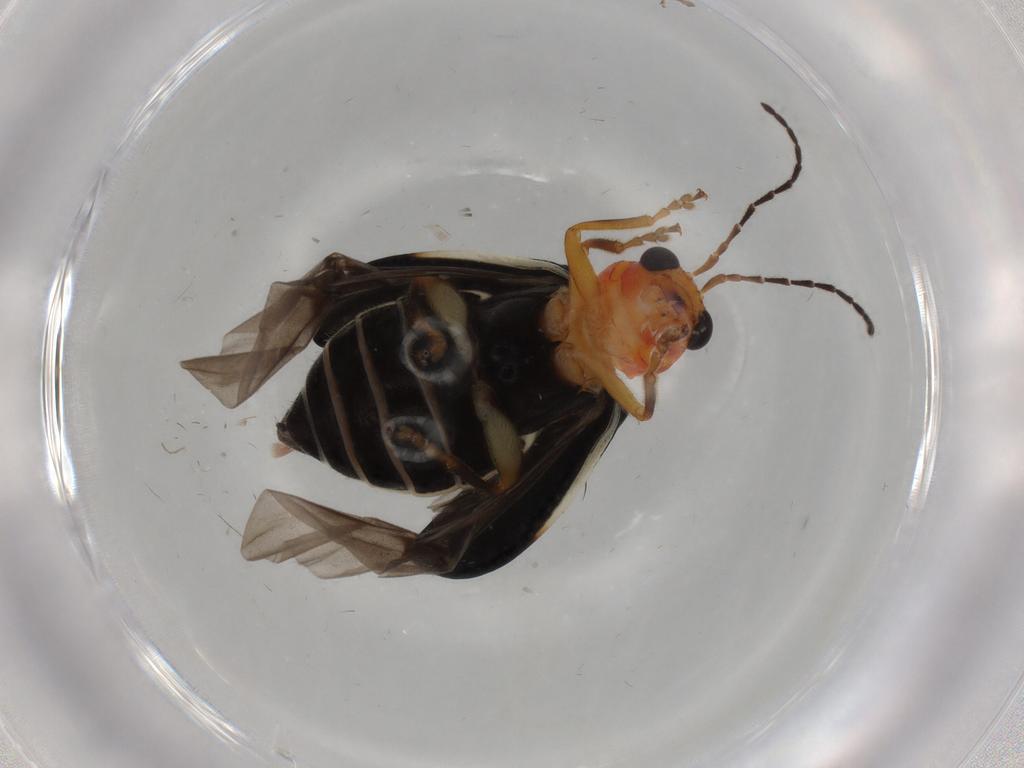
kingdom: Animalia
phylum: Arthropoda
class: Insecta
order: Coleoptera
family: Chrysomelidae
